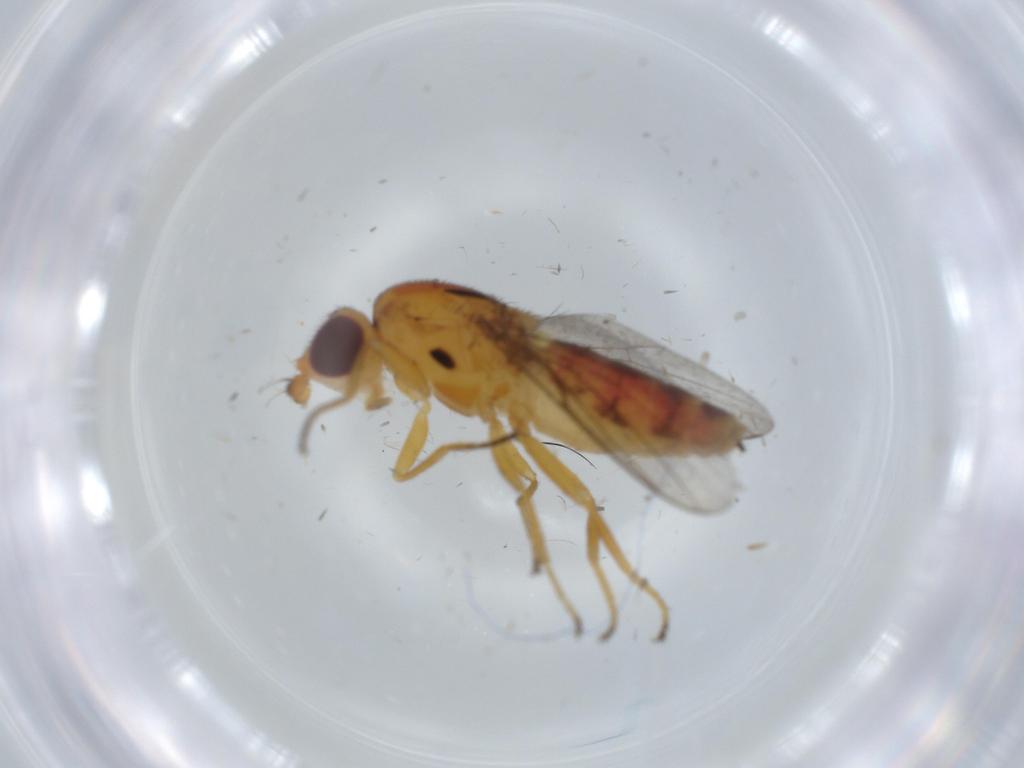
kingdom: Animalia
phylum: Arthropoda
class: Insecta
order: Diptera
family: Chloropidae
